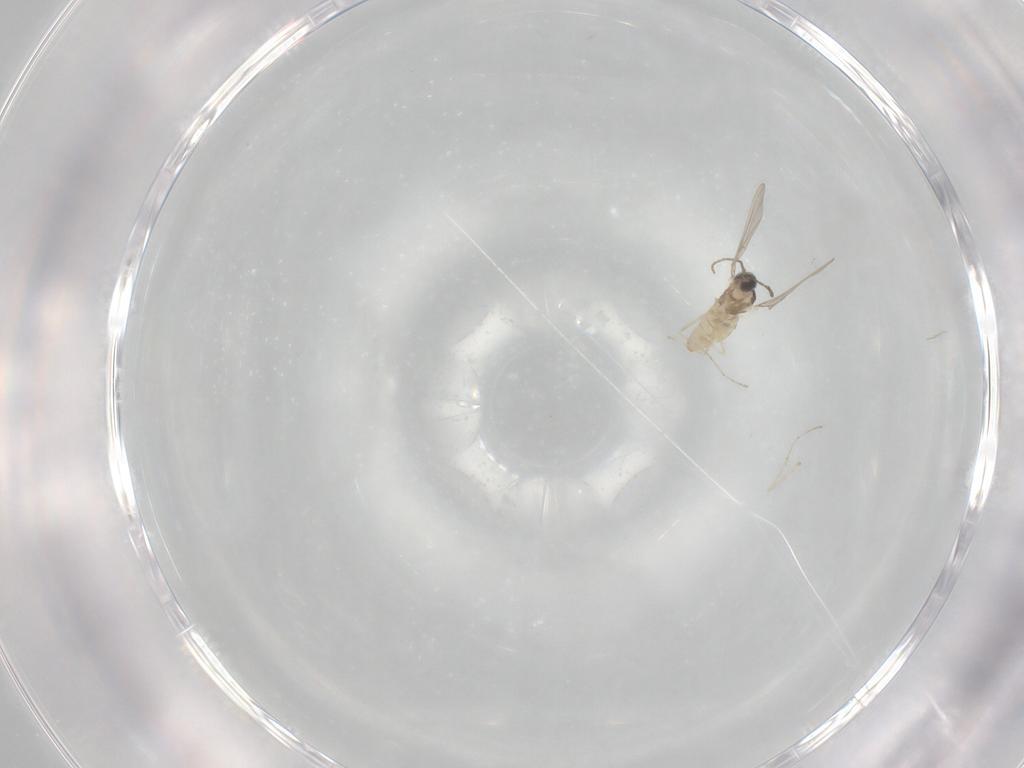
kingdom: Animalia
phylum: Arthropoda
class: Insecta
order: Diptera
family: Cecidomyiidae
